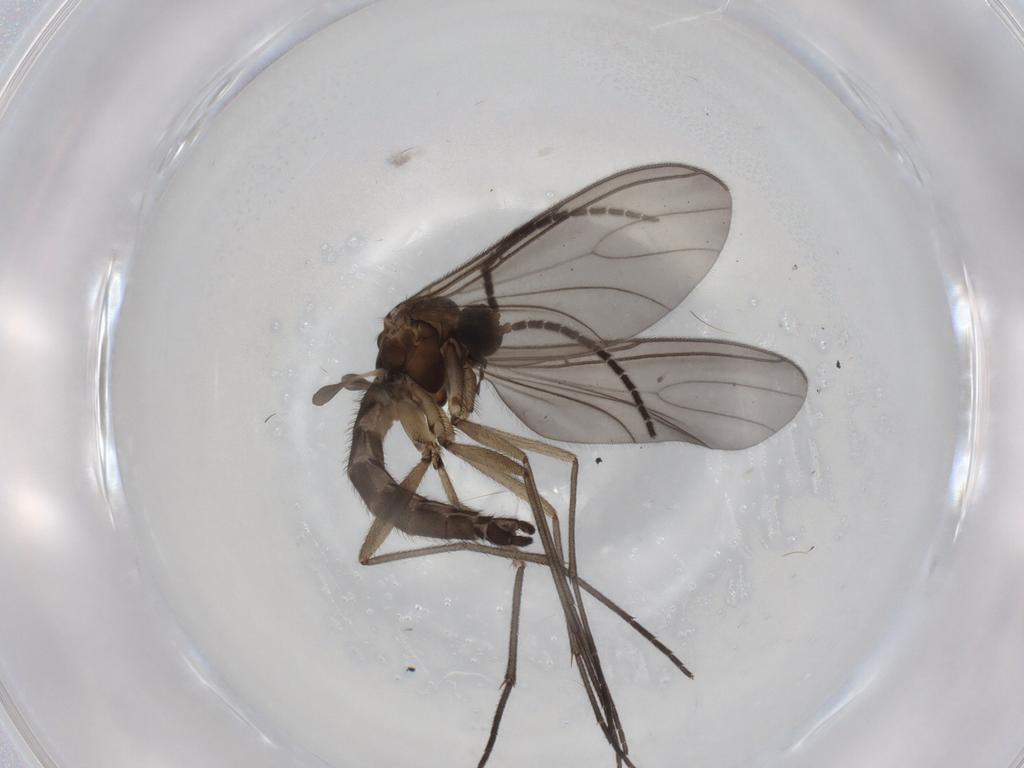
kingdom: Animalia
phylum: Arthropoda
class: Insecta
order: Diptera
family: Sciaridae
